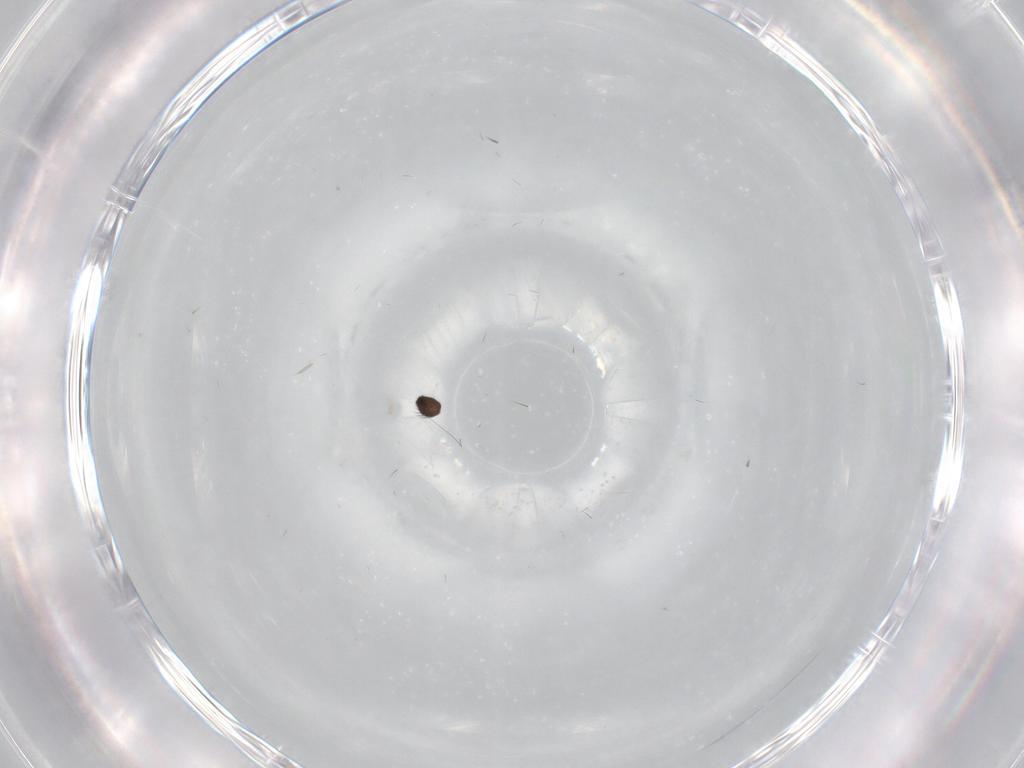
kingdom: Animalia
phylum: Arthropoda
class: Insecta
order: Diptera
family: Sciaridae
